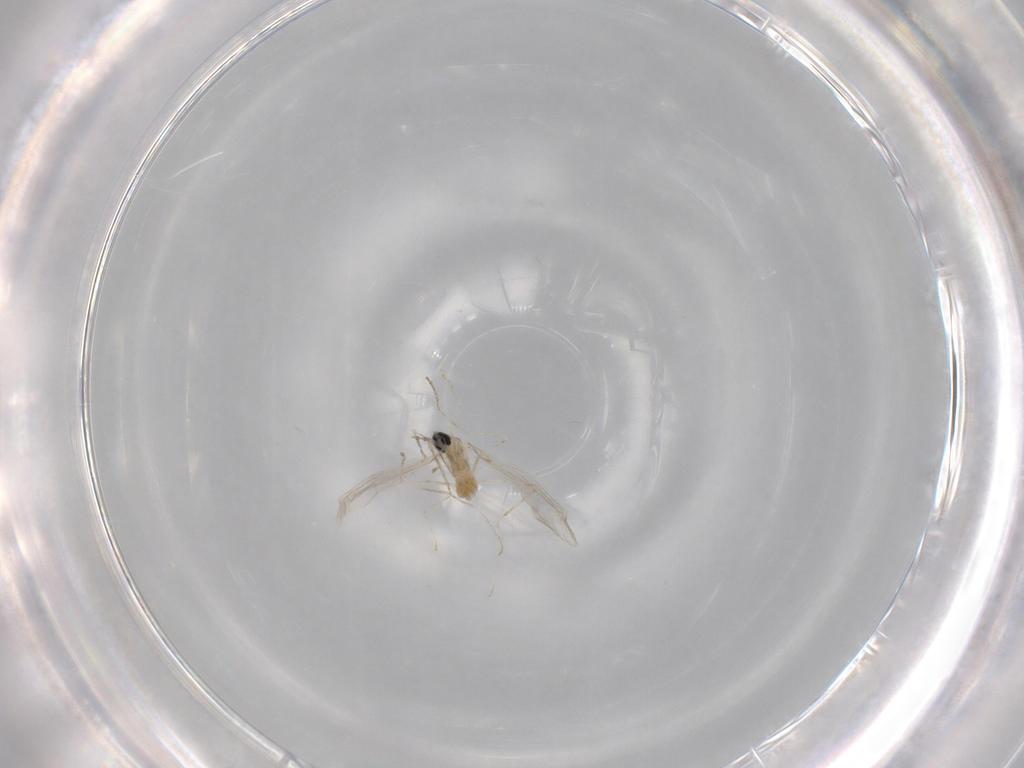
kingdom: Animalia
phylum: Arthropoda
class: Insecta
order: Diptera
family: Cecidomyiidae
